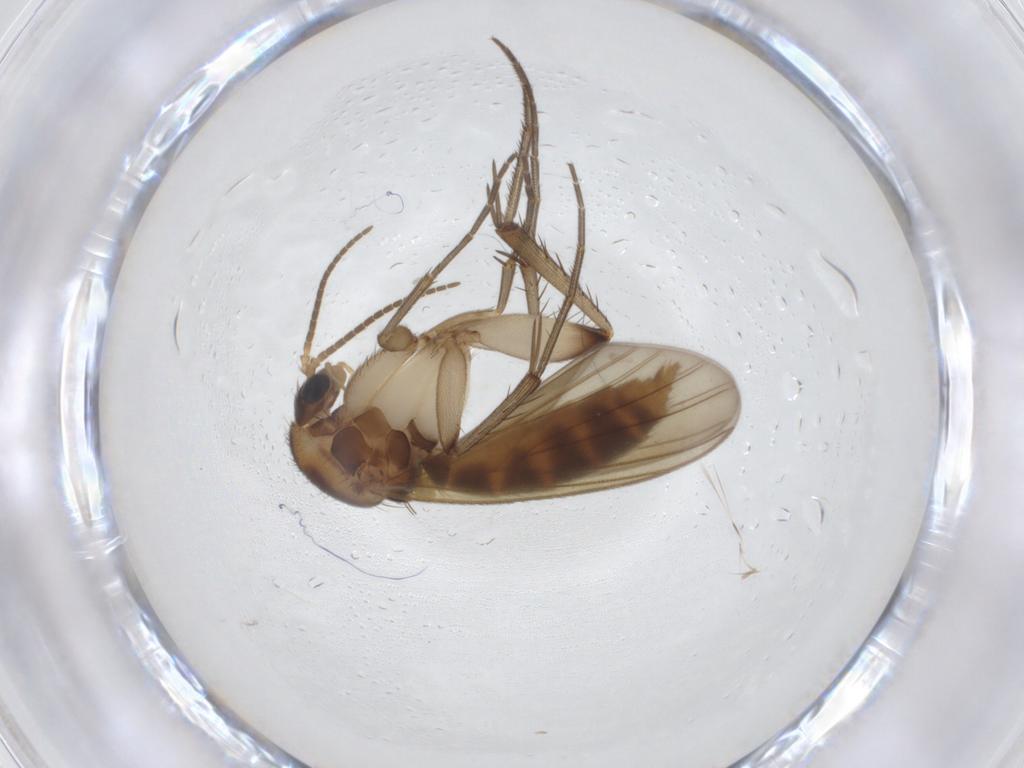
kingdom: Animalia
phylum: Arthropoda
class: Insecta
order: Diptera
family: Mycetophilidae
